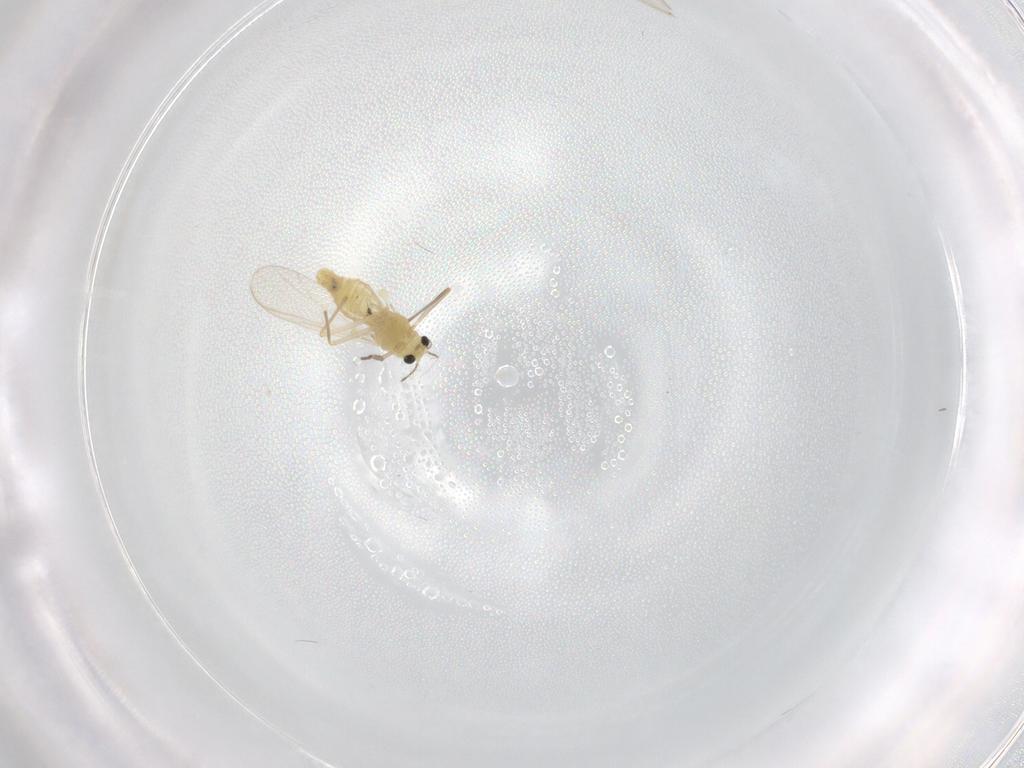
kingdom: Animalia
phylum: Arthropoda
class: Insecta
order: Diptera
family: Chironomidae
